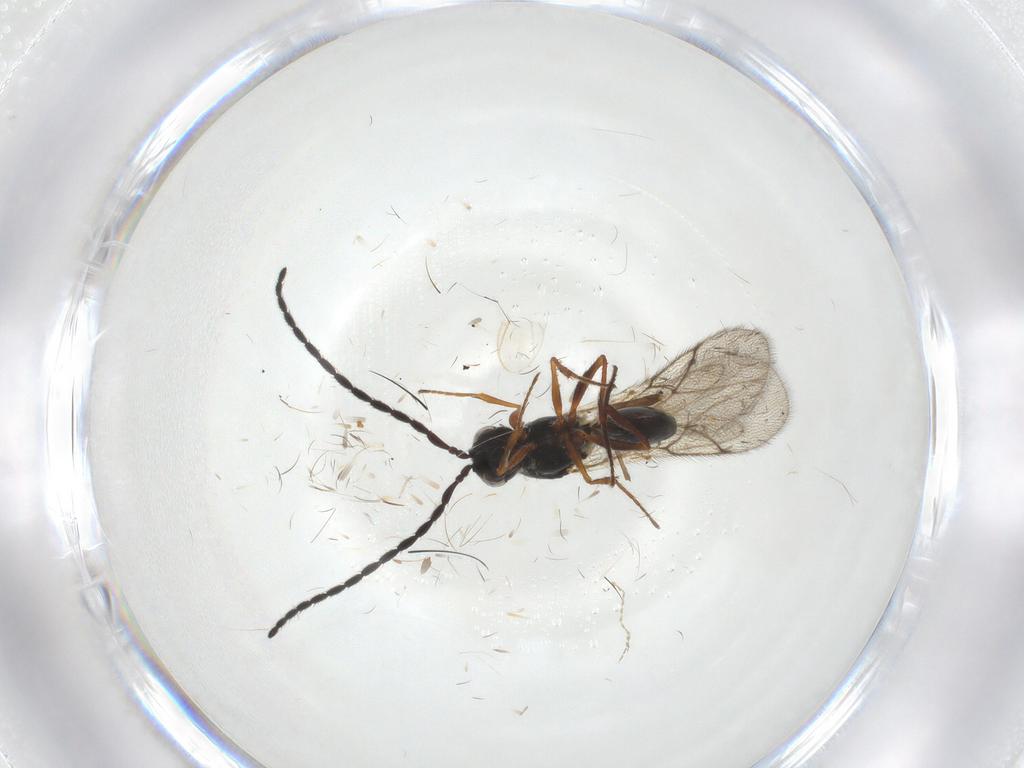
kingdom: Animalia
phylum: Arthropoda
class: Insecta
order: Hymenoptera
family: Figitidae
